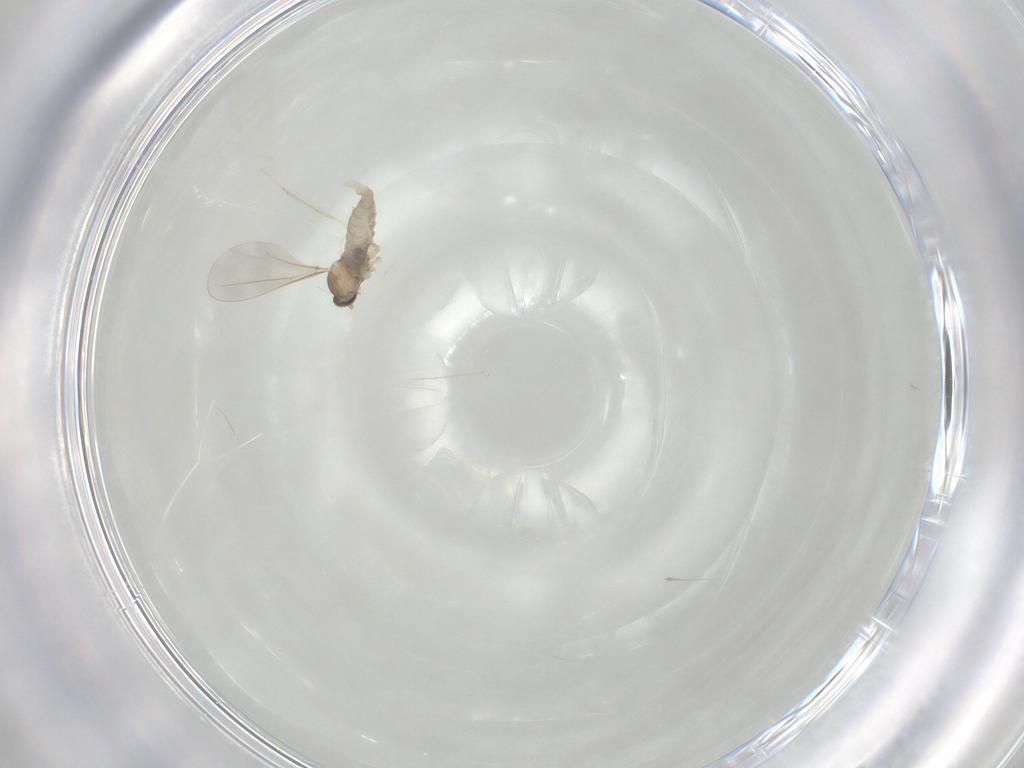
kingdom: Animalia
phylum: Arthropoda
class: Insecta
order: Diptera
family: Cecidomyiidae
